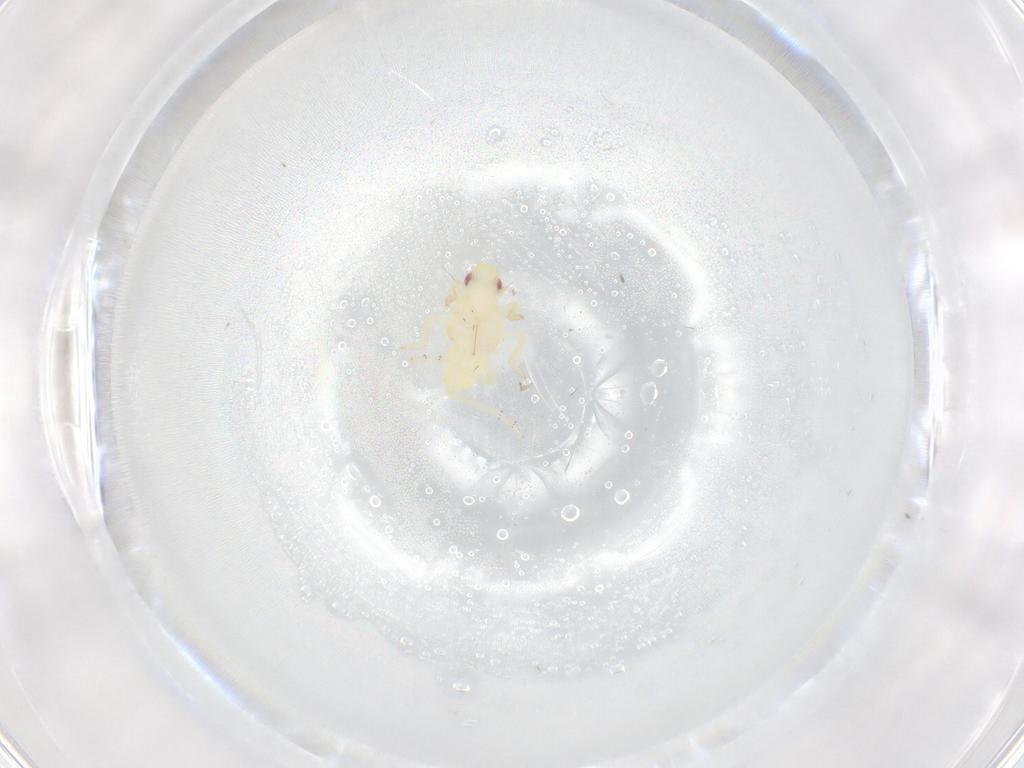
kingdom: Animalia
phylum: Arthropoda
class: Insecta
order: Hemiptera
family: Tropiduchidae
